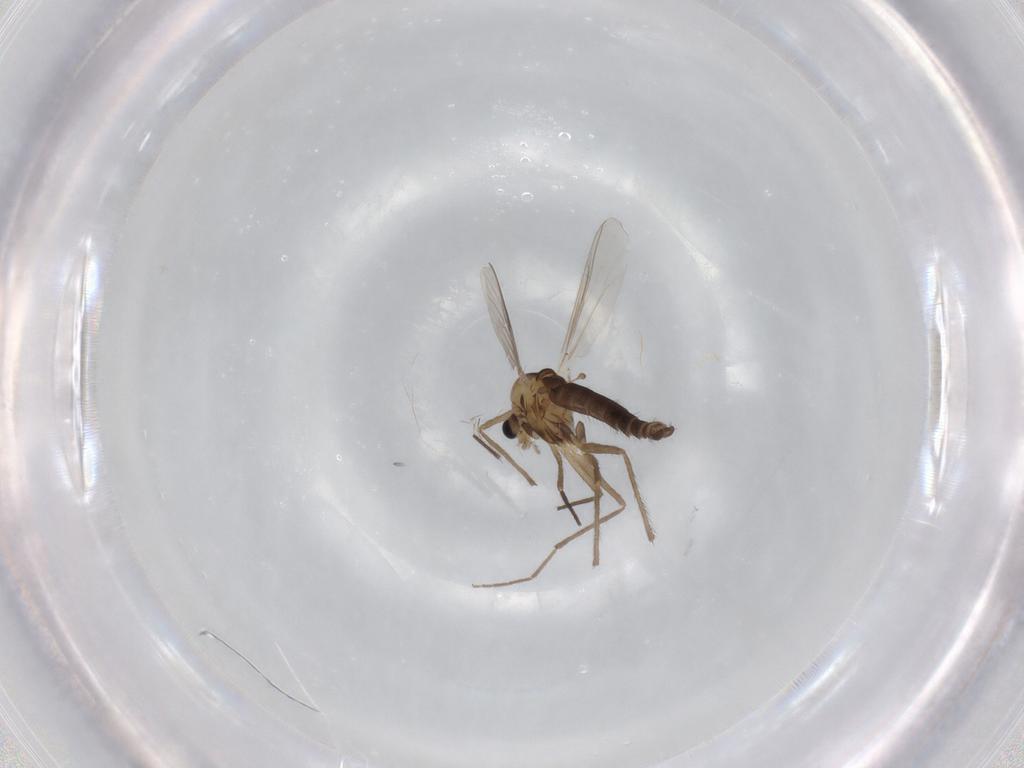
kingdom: Animalia
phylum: Arthropoda
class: Insecta
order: Diptera
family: Chironomidae
